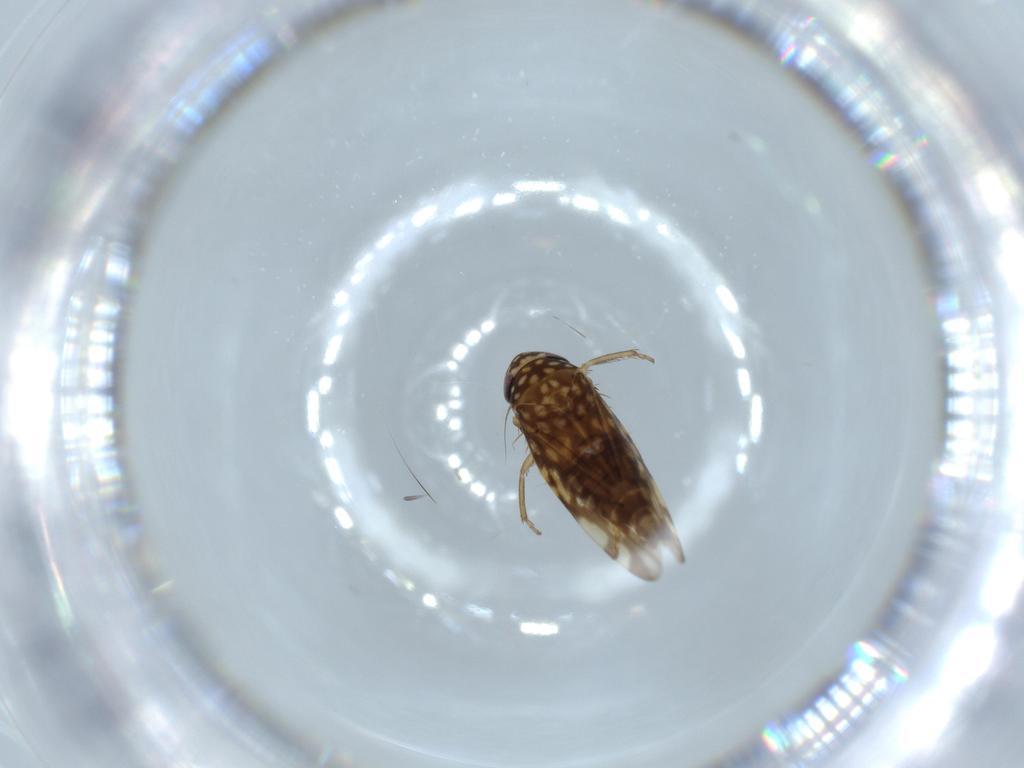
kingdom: Animalia
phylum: Arthropoda
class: Insecta
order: Hemiptera
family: Cicadellidae
